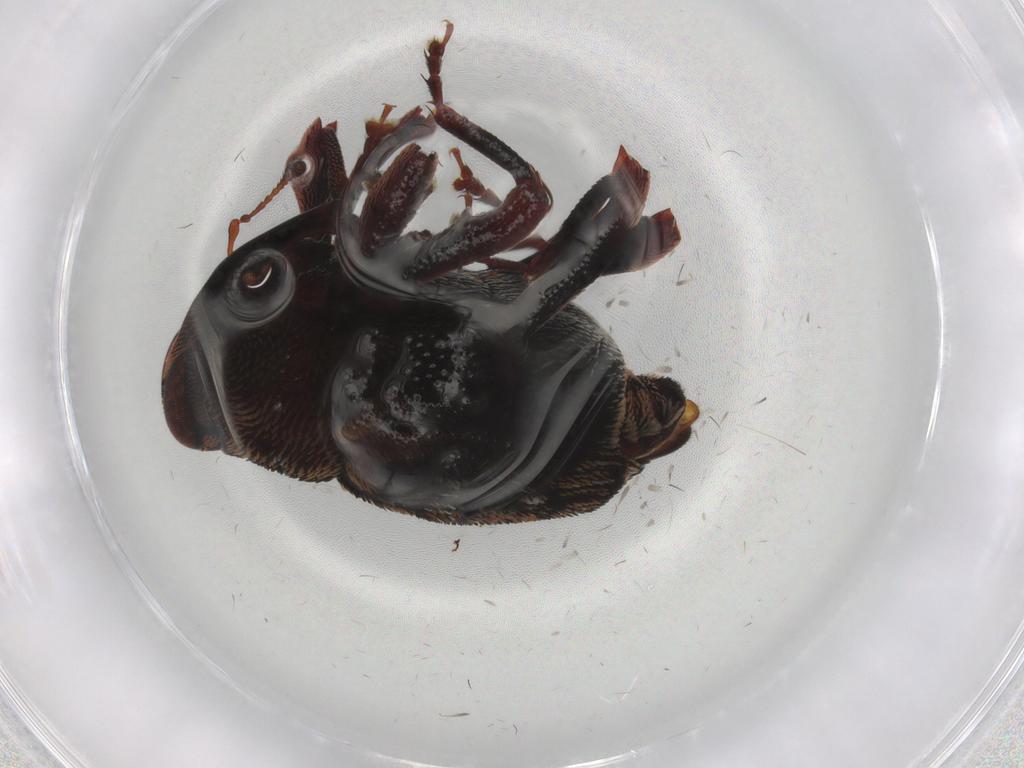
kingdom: Animalia
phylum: Arthropoda
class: Insecta
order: Coleoptera
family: Curculionidae
